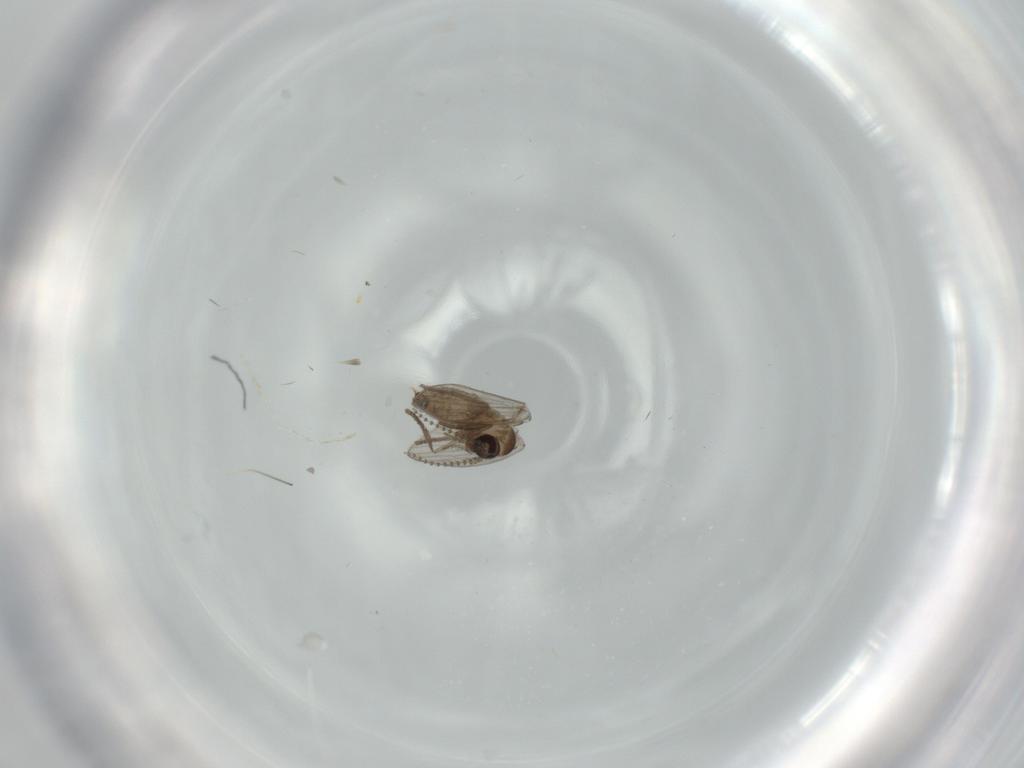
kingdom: Animalia
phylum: Arthropoda
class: Insecta
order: Diptera
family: Psychodidae
